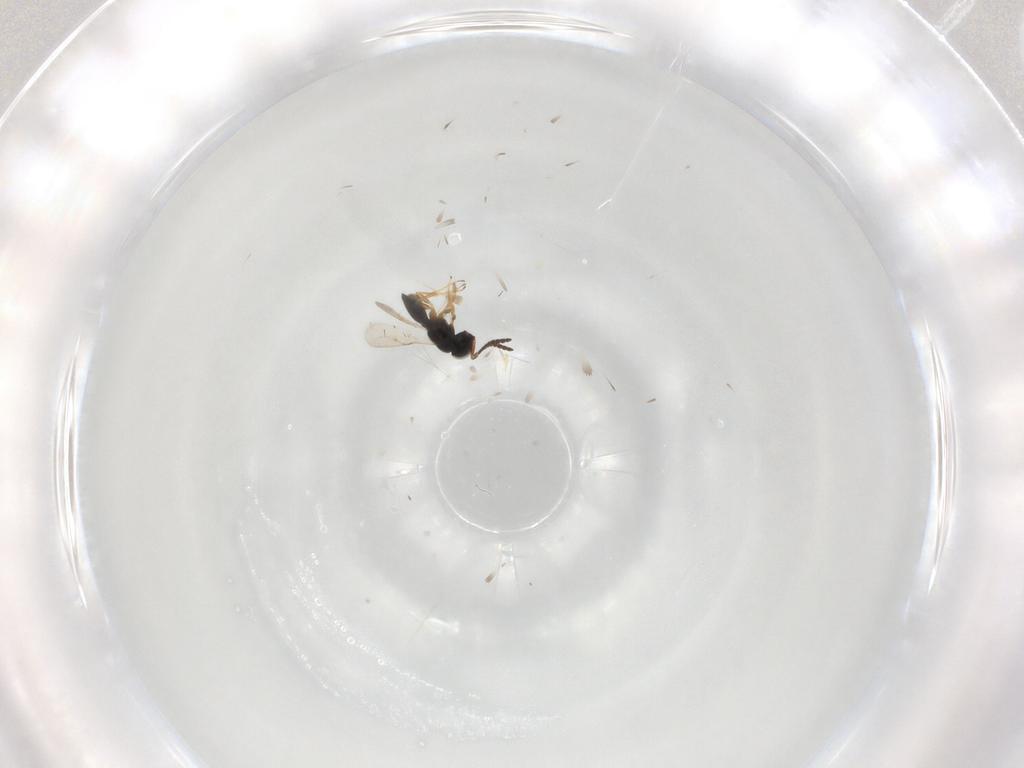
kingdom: Animalia
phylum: Arthropoda
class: Insecta
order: Hymenoptera
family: Scelionidae
